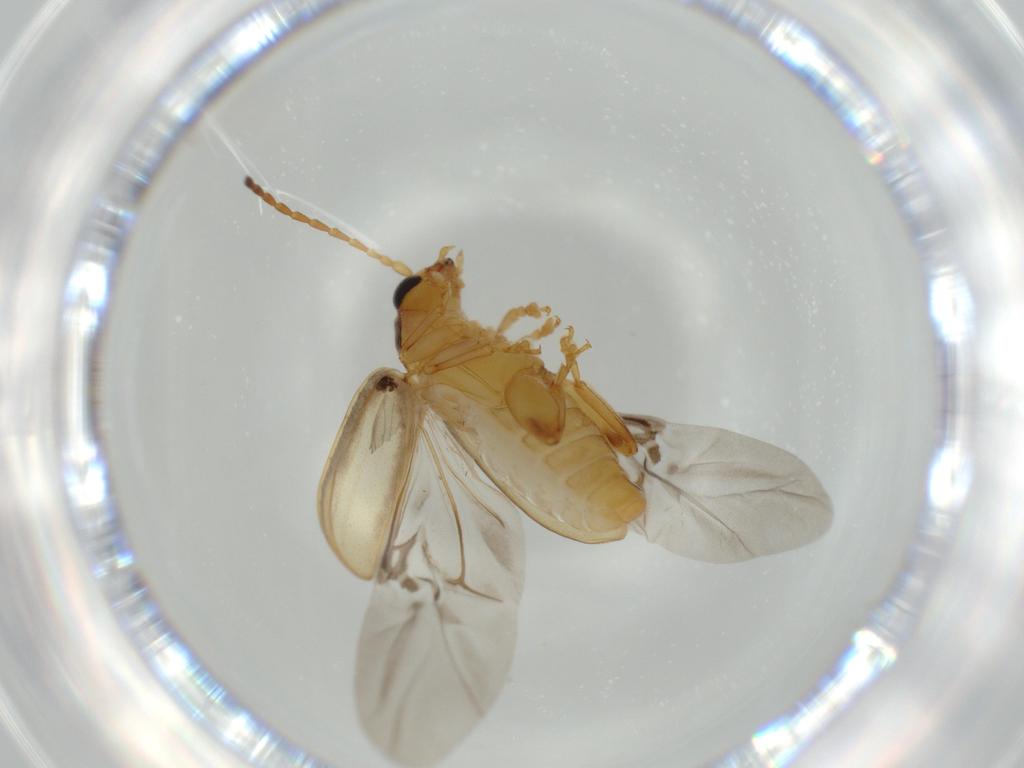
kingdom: Animalia
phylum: Arthropoda
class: Insecta
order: Coleoptera
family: Chrysomelidae
